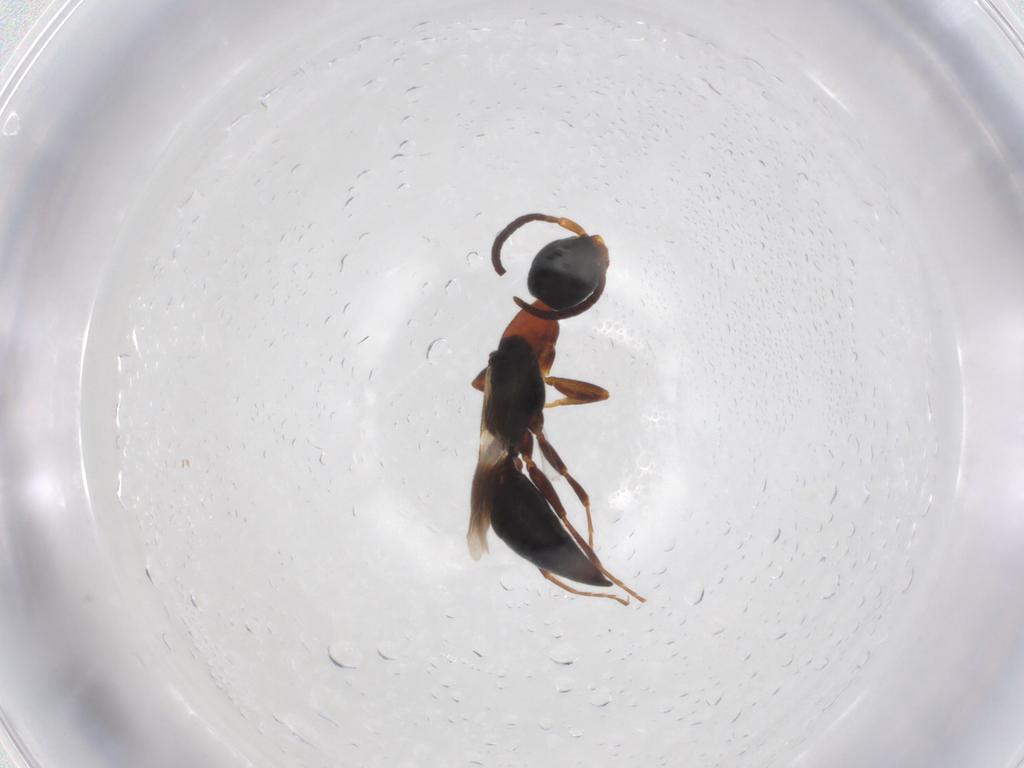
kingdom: Animalia
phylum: Arthropoda
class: Insecta
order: Hymenoptera
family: Bethylidae
